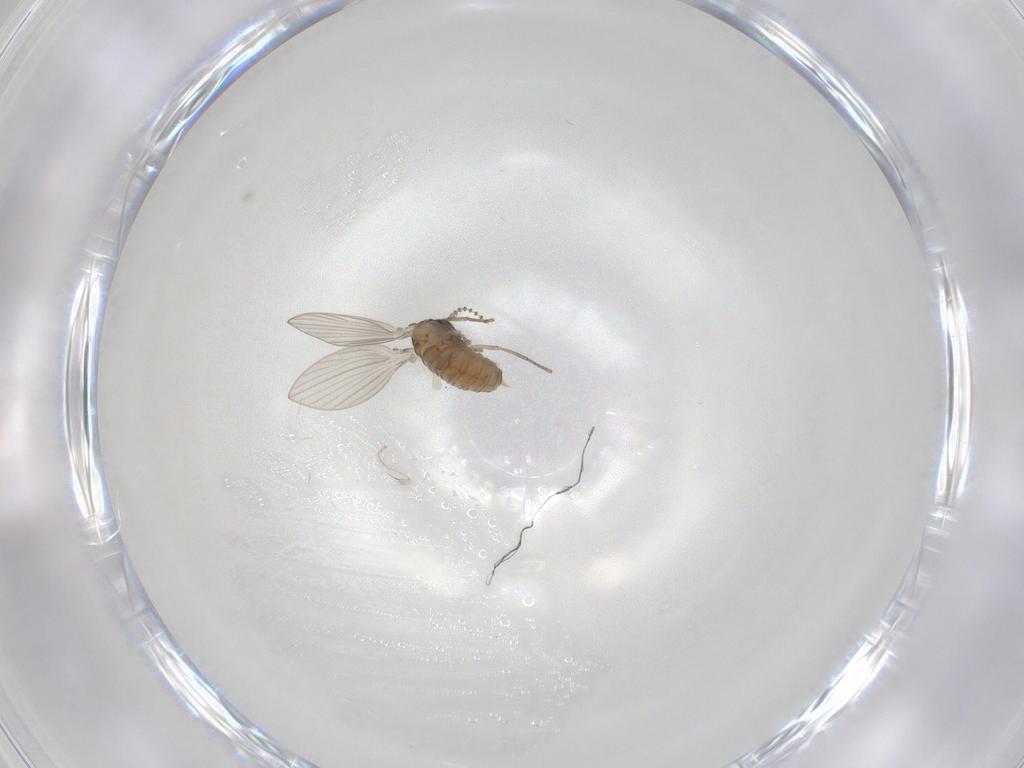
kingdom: Animalia
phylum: Arthropoda
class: Insecta
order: Diptera
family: Psychodidae
